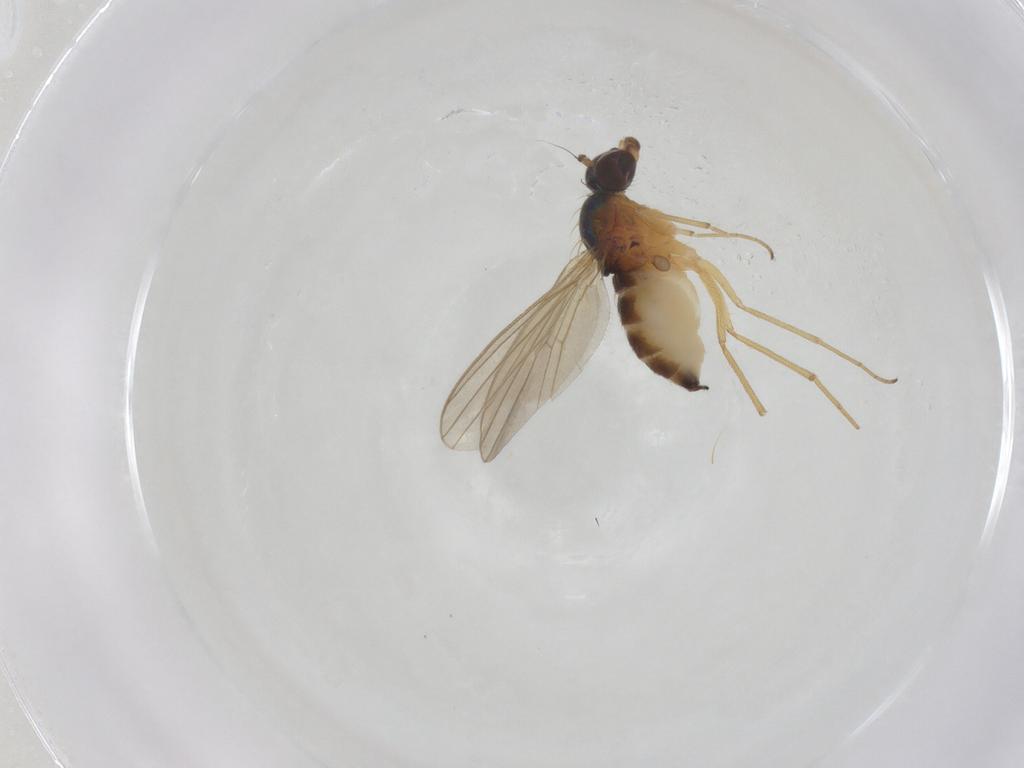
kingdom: Animalia
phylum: Arthropoda
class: Insecta
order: Diptera
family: Dolichopodidae
